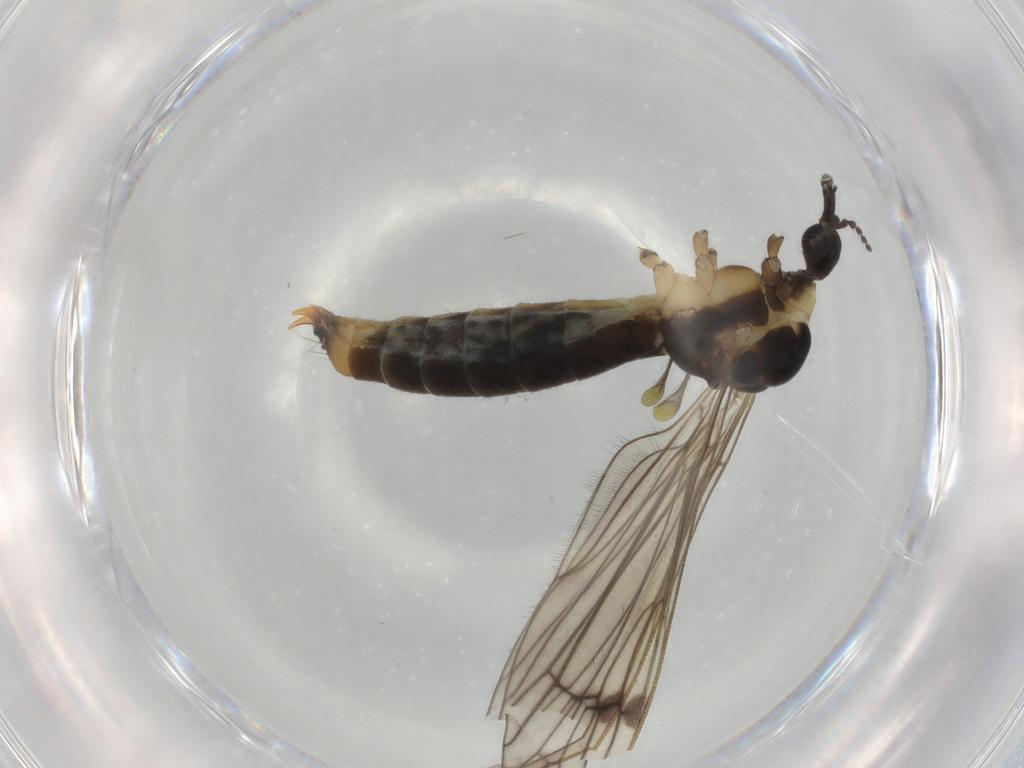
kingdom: Animalia
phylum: Arthropoda
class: Insecta
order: Diptera
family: Limoniidae
